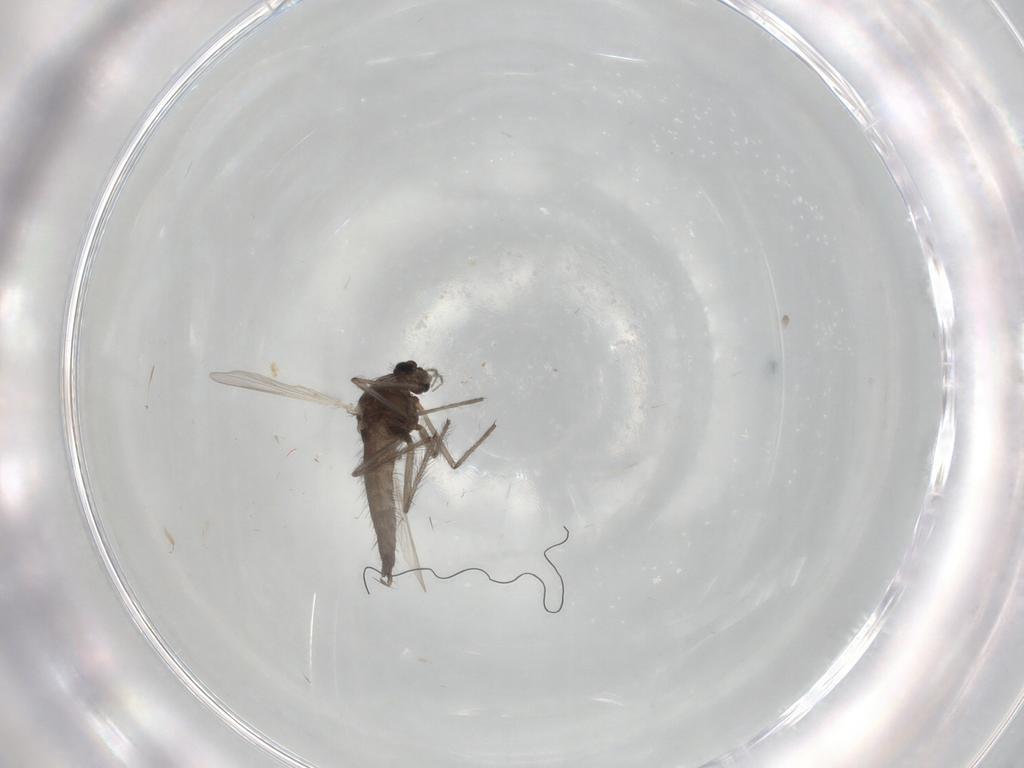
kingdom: Animalia
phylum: Arthropoda
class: Insecta
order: Diptera
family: Chironomidae
